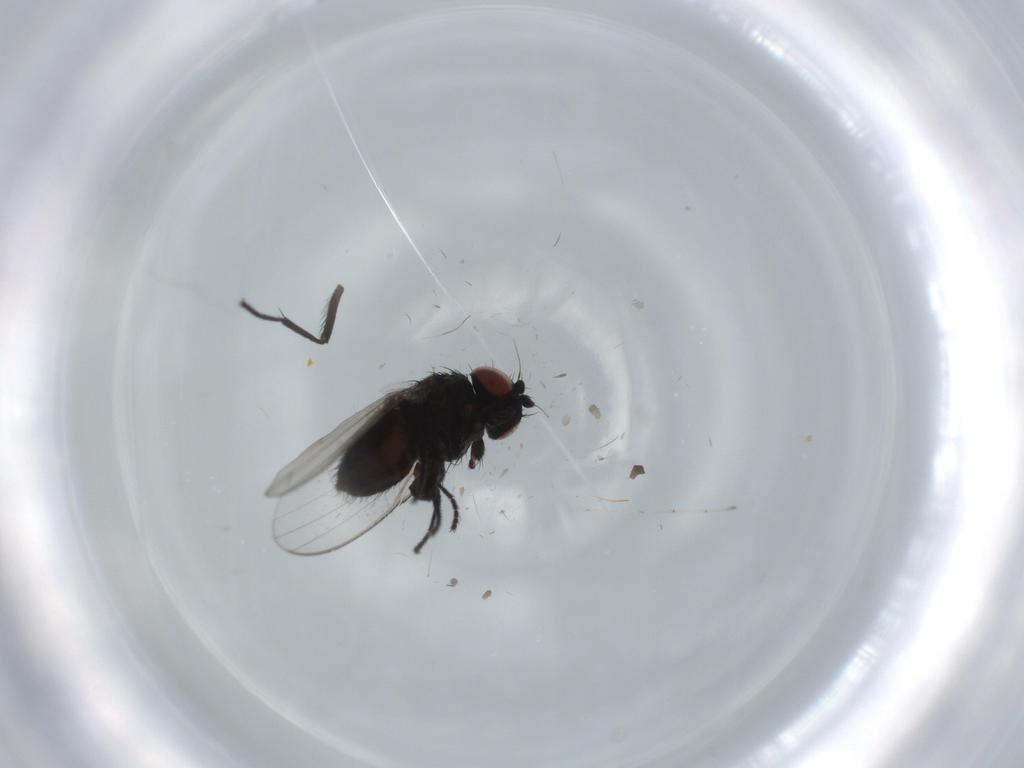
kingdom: Animalia
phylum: Arthropoda
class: Insecta
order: Diptera
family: Milichiidae
